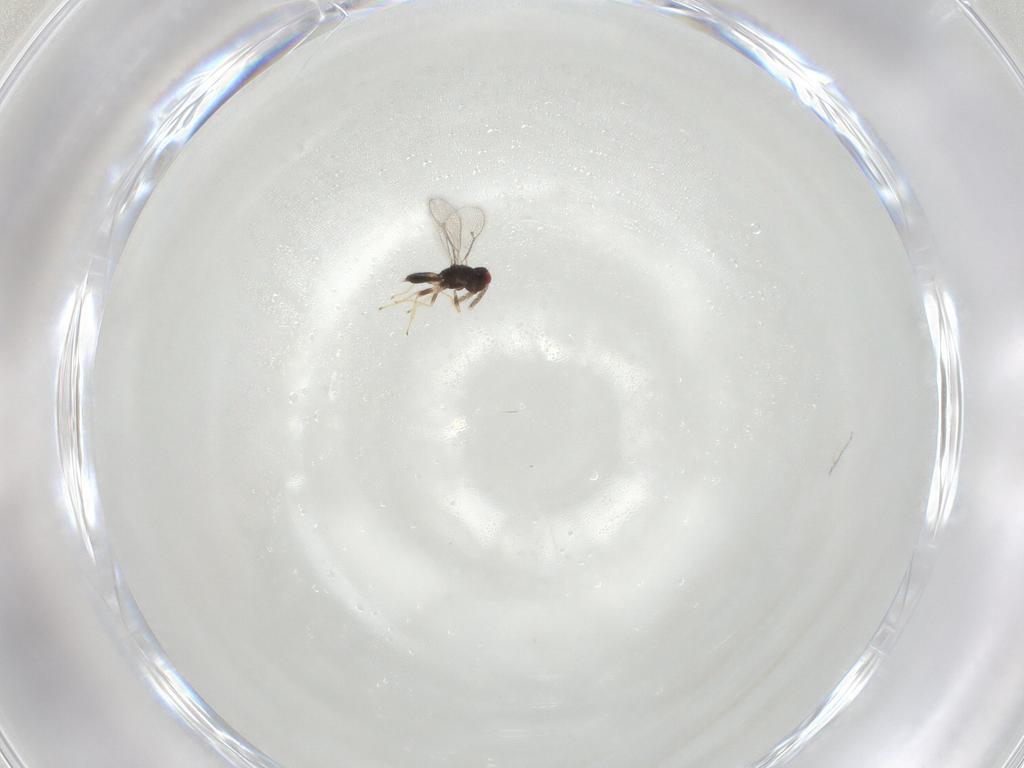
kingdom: Animalia
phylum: Arthropoda
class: Insecta
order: Hymenoptera
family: Eulophidae
